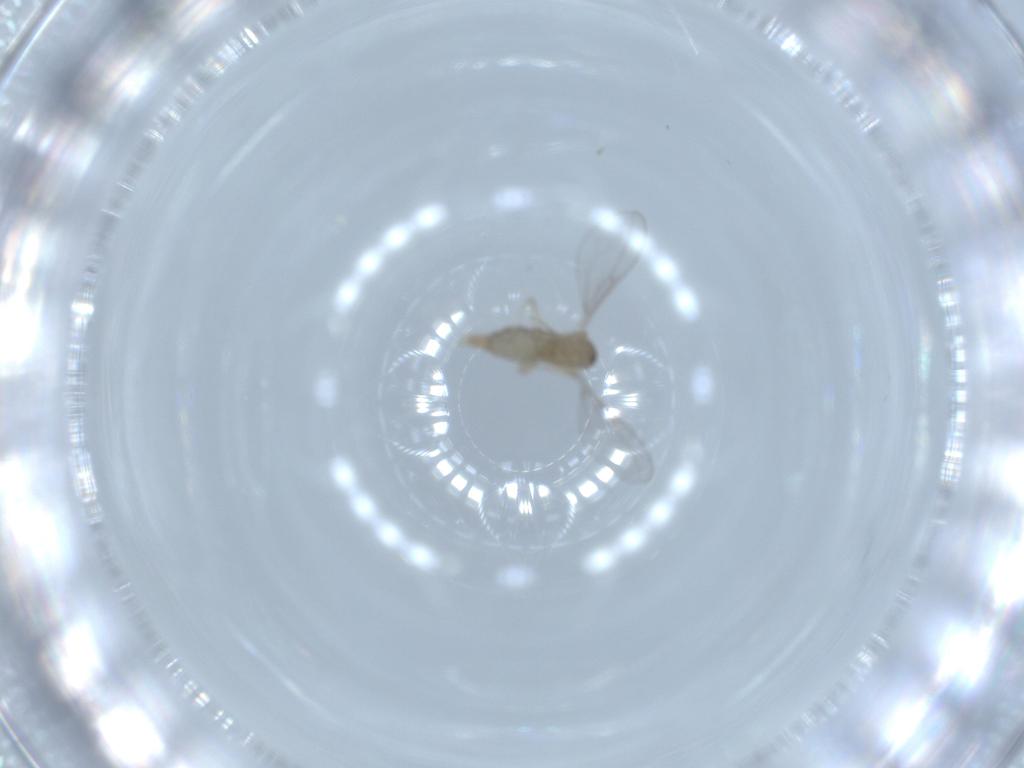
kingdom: Animalia
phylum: Arthropoda
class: Insecta
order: Diptera
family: Cecidomyiidae
